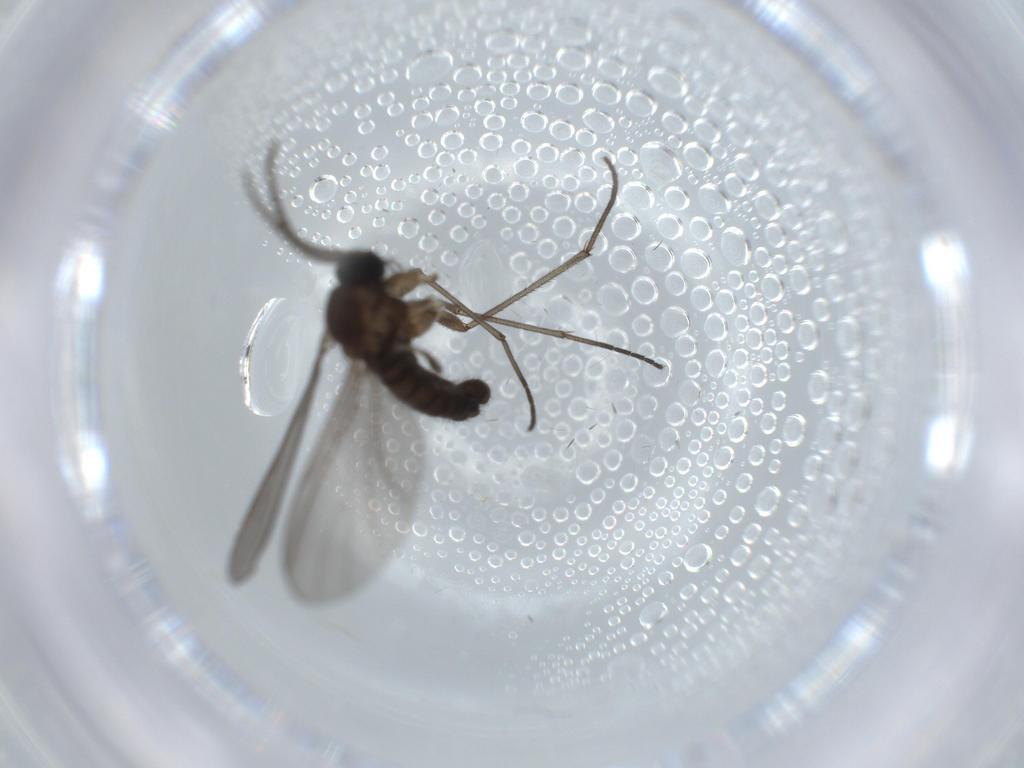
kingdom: Animalia
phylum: Arthropoda
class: Insecta
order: Diptera
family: Sciaridae
